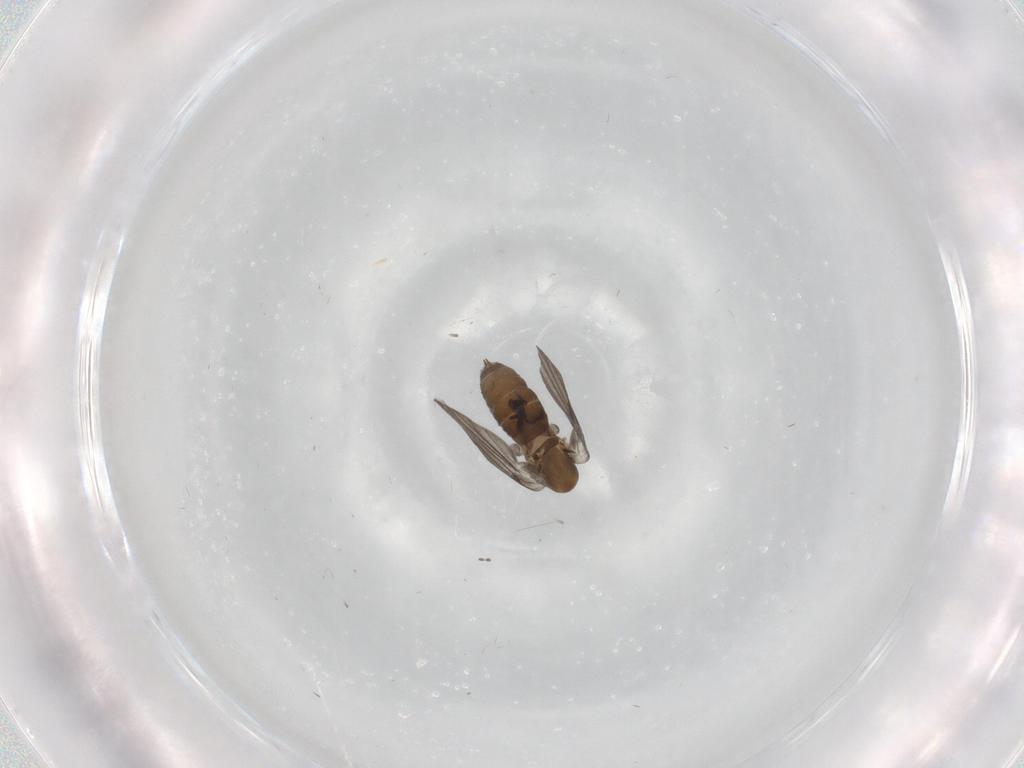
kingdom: Animalia
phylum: Arthropoda
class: Insecta
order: Diptera
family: Psychodidae
